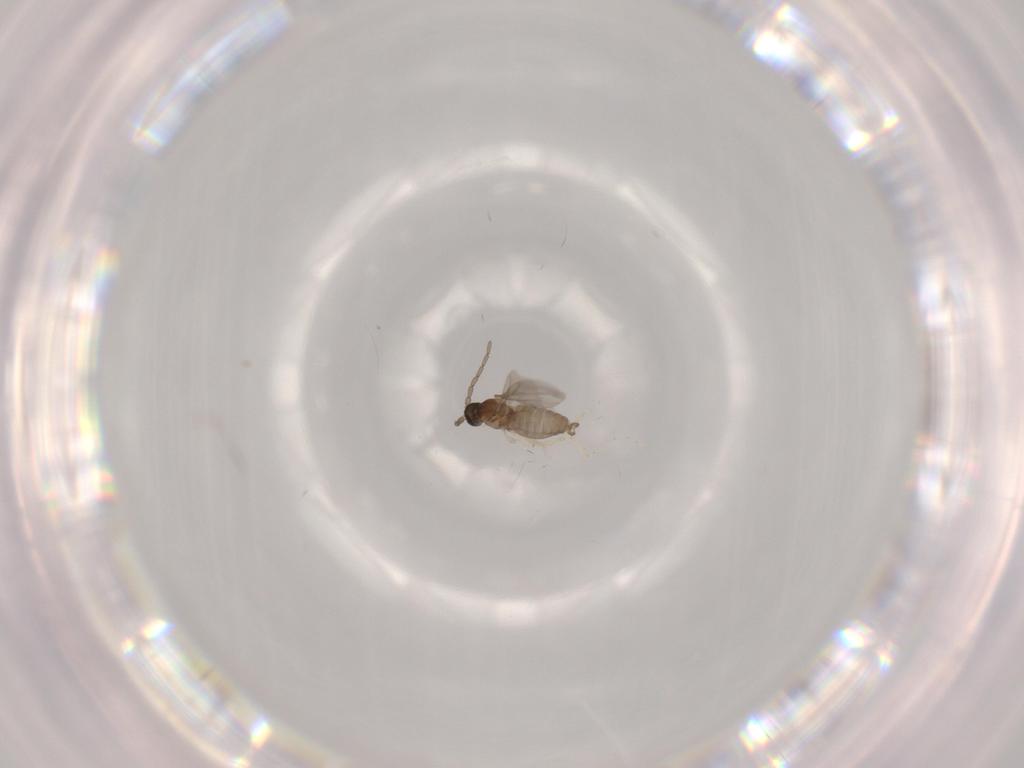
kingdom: Animalia
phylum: Arthropoda
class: Insecta
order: Diptera
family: Cecidomyiidae
